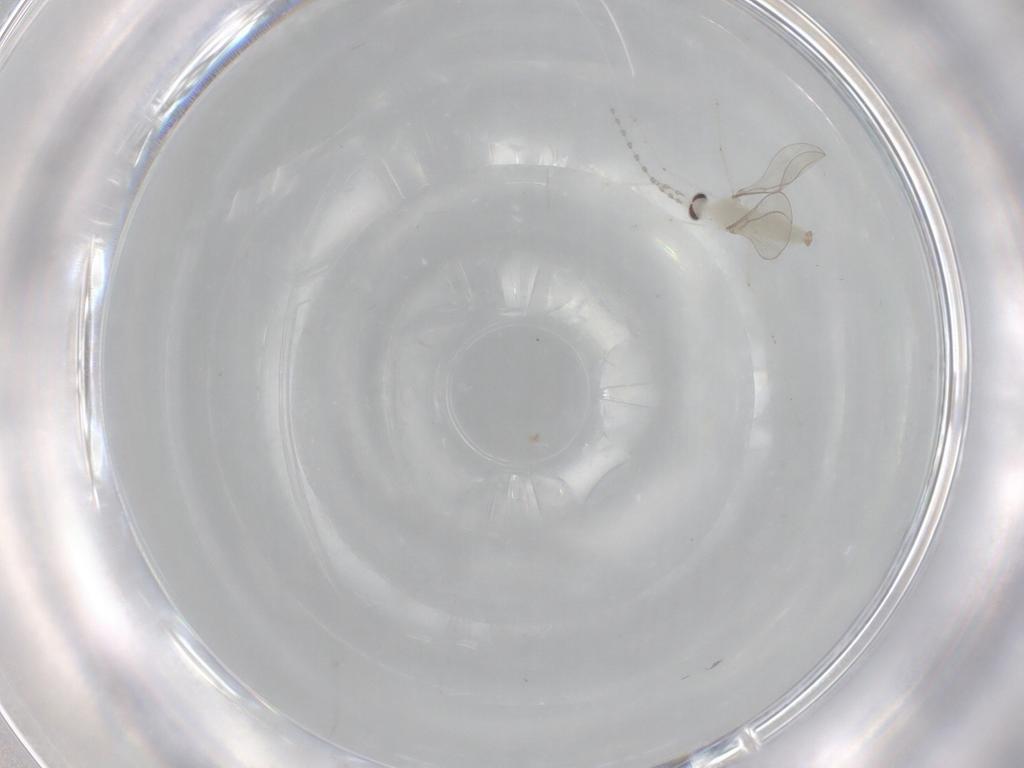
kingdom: Animalia
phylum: Arthropoda
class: Insecta
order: Diptera
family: Cecidomyiidae
